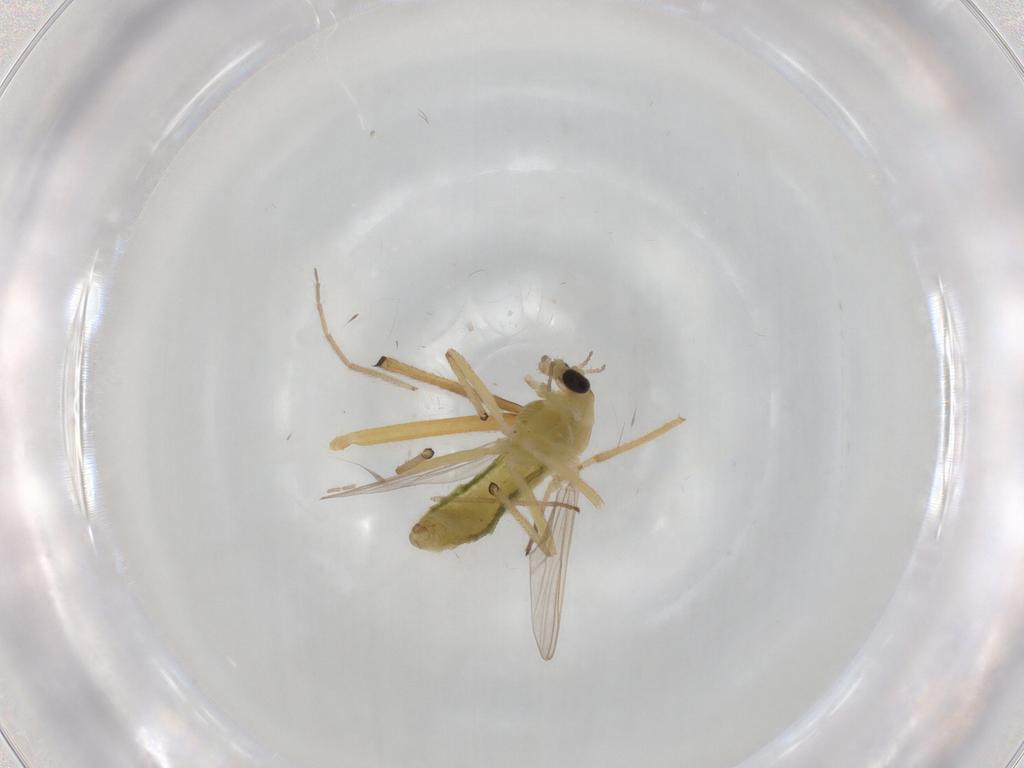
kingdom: Animalia
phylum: Arthropoda
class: Insecta
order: Diptera
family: Chironomidae
